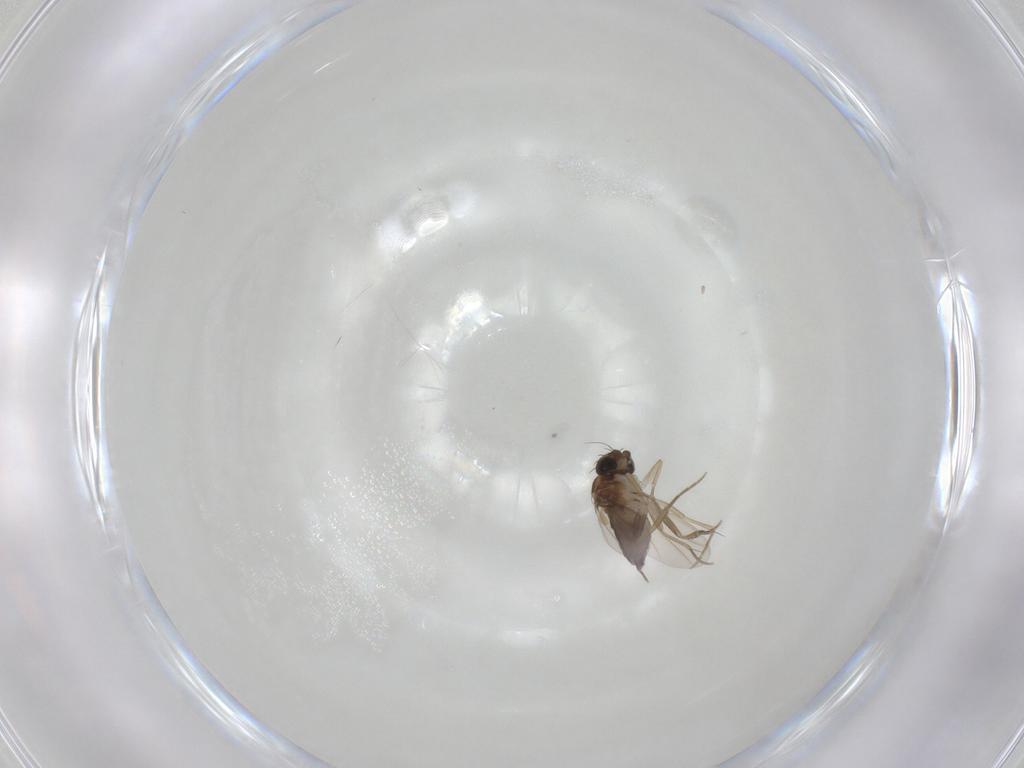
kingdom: Animalia
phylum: Arthropoda
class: Insecta
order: Diptera
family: Phoridae
